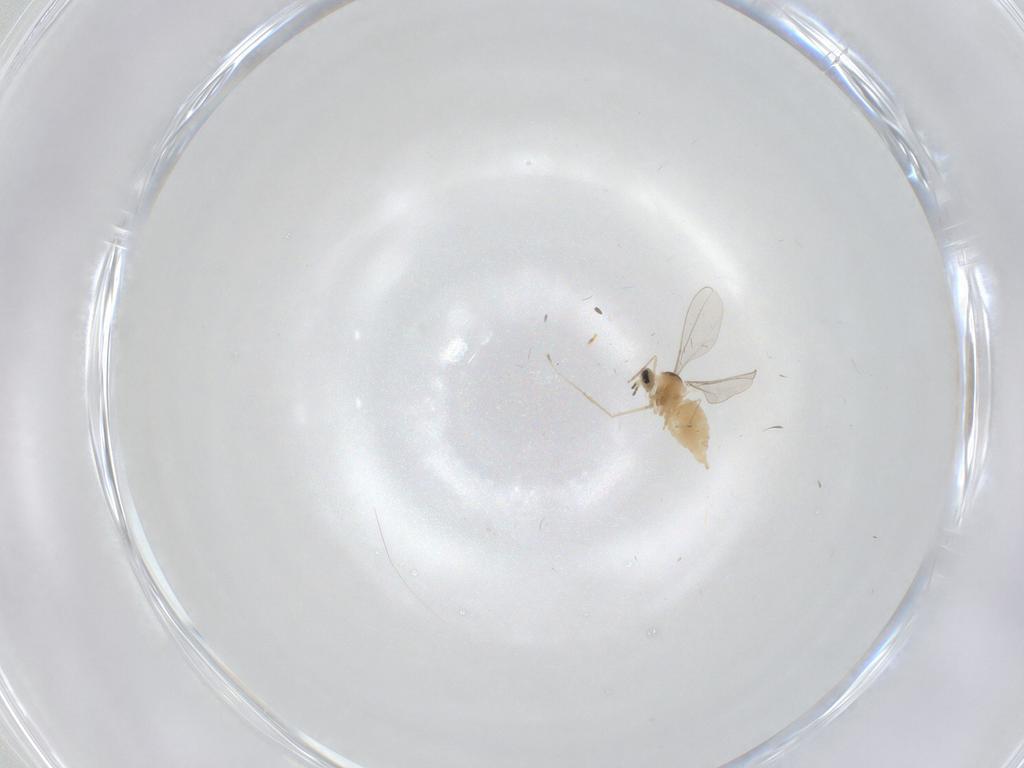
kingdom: Animalia
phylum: Arthropoda
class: Insecta
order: Diptera
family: Cecidomyiidae
